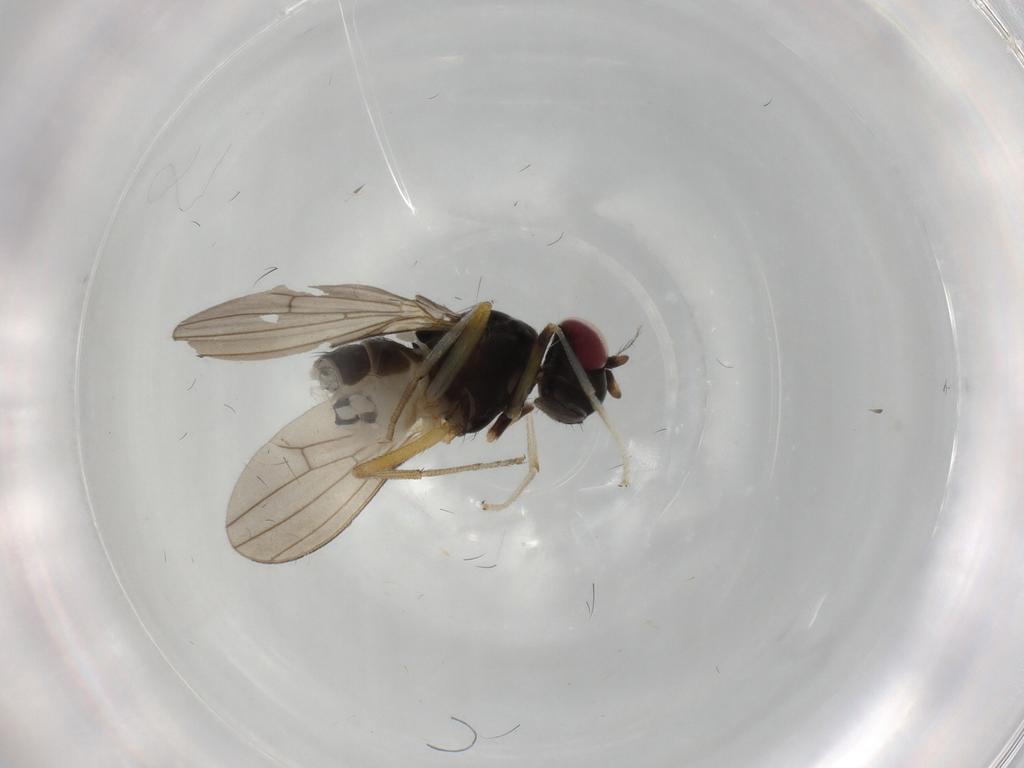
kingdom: Animalia
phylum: Arthropoda
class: Insecta
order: Diptera
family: Lauxaniidae
